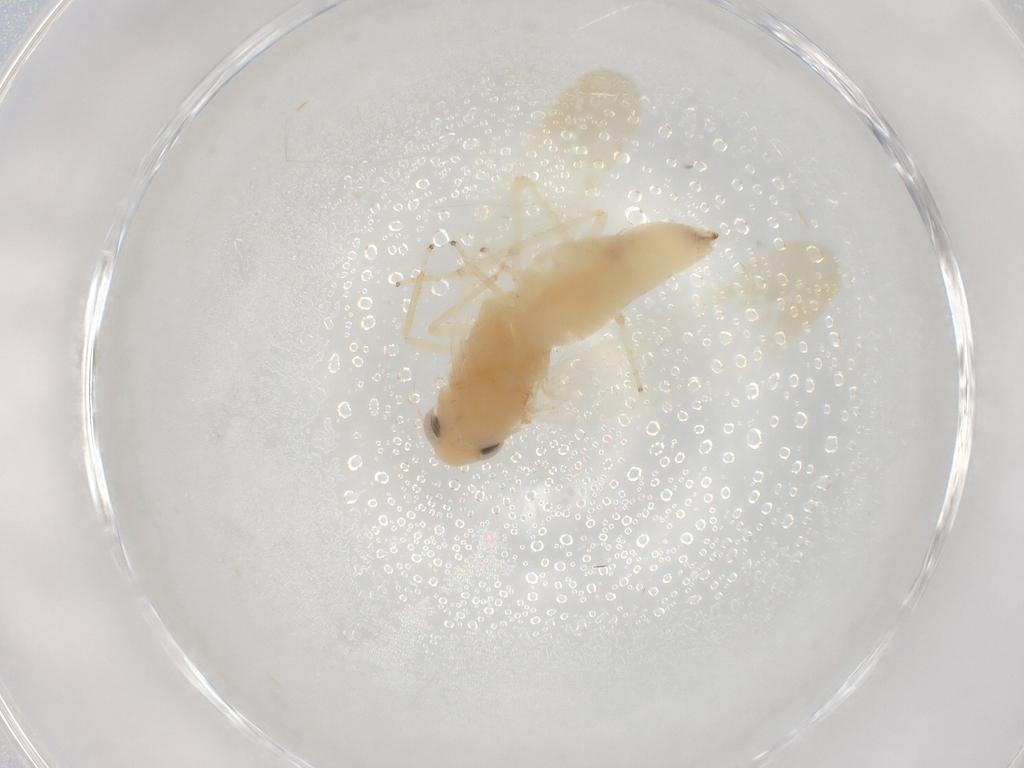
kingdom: Animalia
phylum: Arthropoda
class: Insecta
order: Hemiptera
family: Cicadellidae
